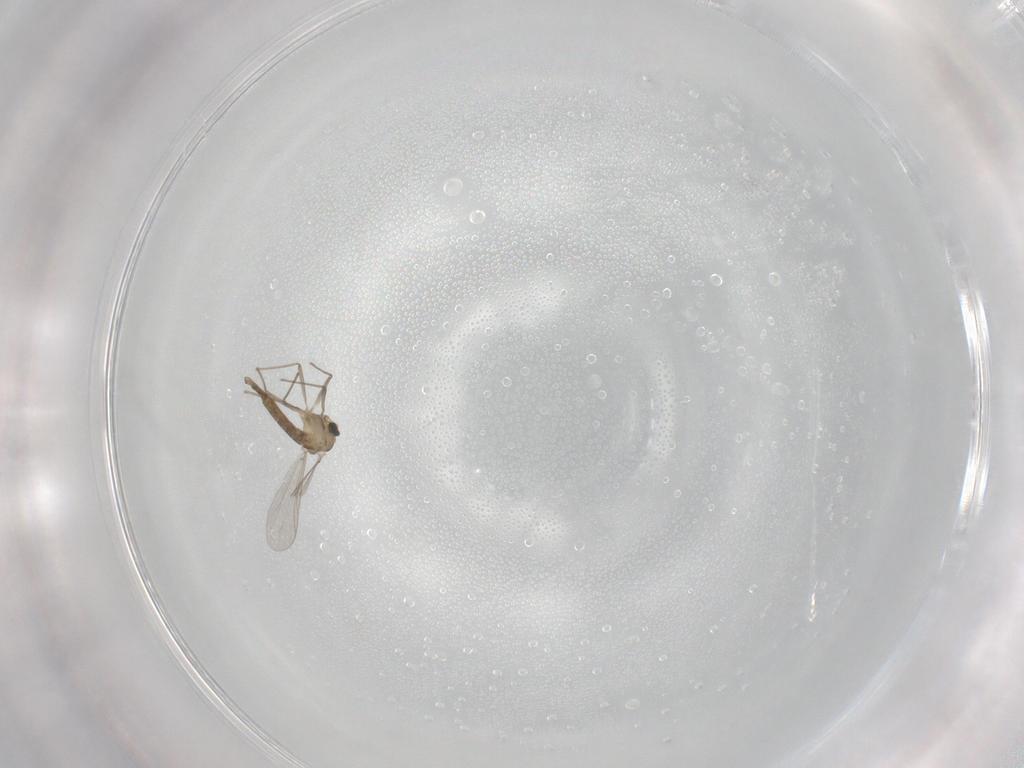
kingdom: Animalia
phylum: Arthropoda
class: Insecta
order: Diptera
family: Chironomidae
